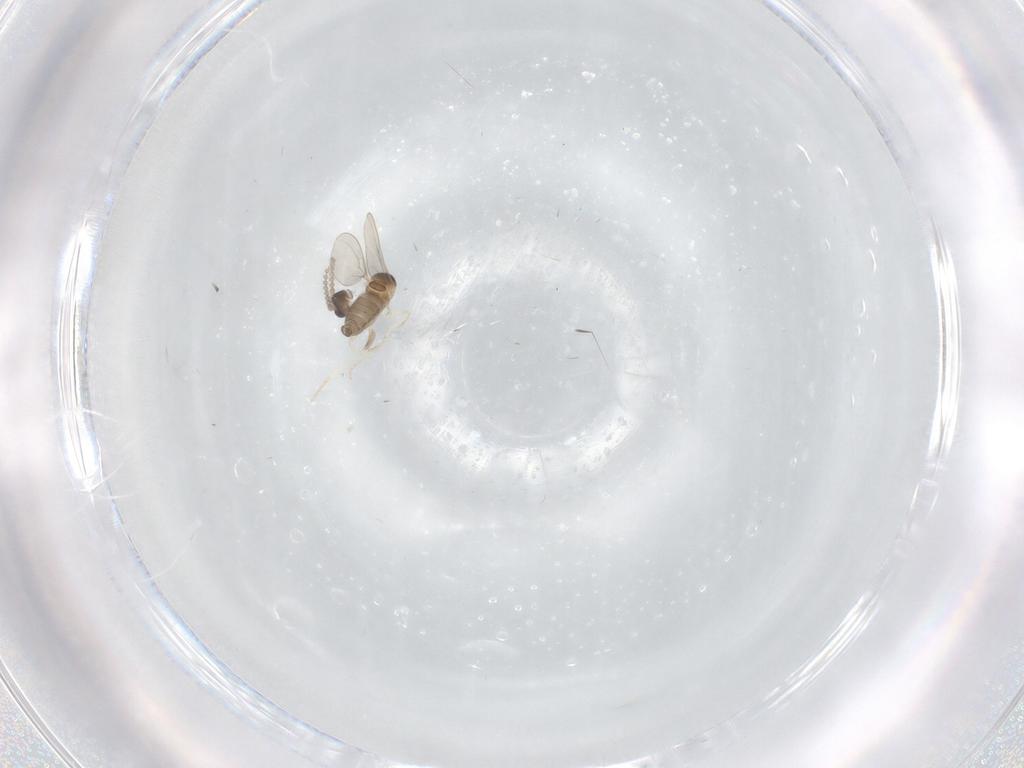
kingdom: Animalia
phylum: Arthropoda
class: Insecta
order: Diptera
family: Cecidomyiidae
